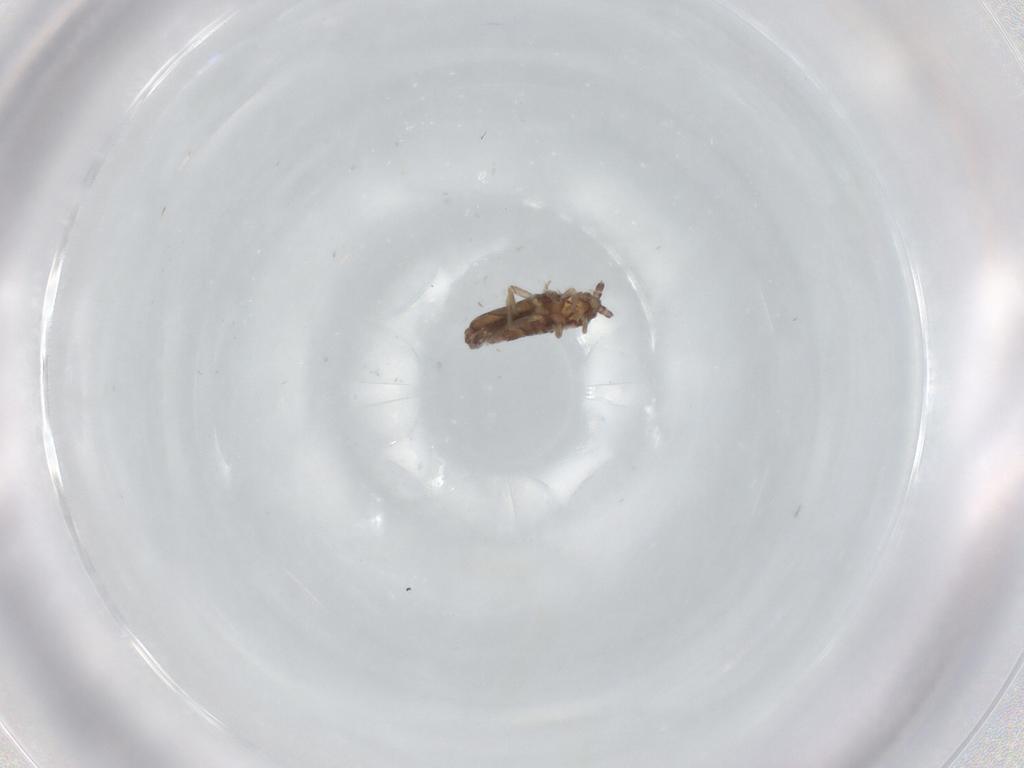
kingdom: Animalia
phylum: Arthropoda
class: Collembola
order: Entomobryomorpha
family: Entomobryidae
